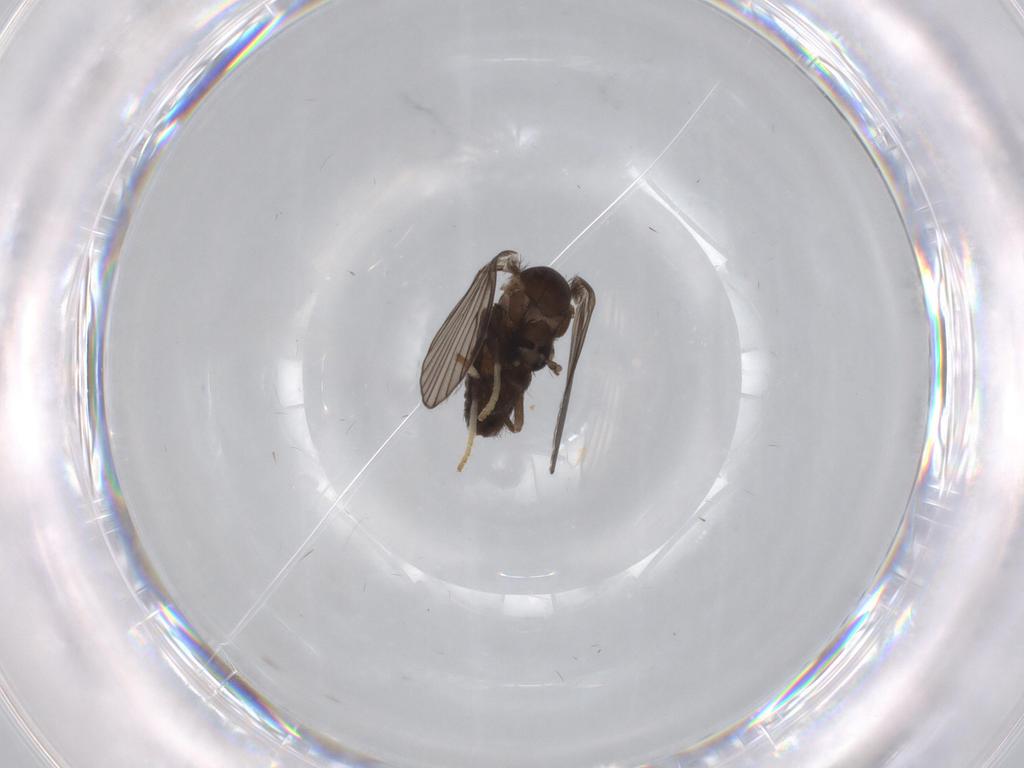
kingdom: Animalia
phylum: Arthropoda
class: Insecta
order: Diptera
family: Psychodidae
